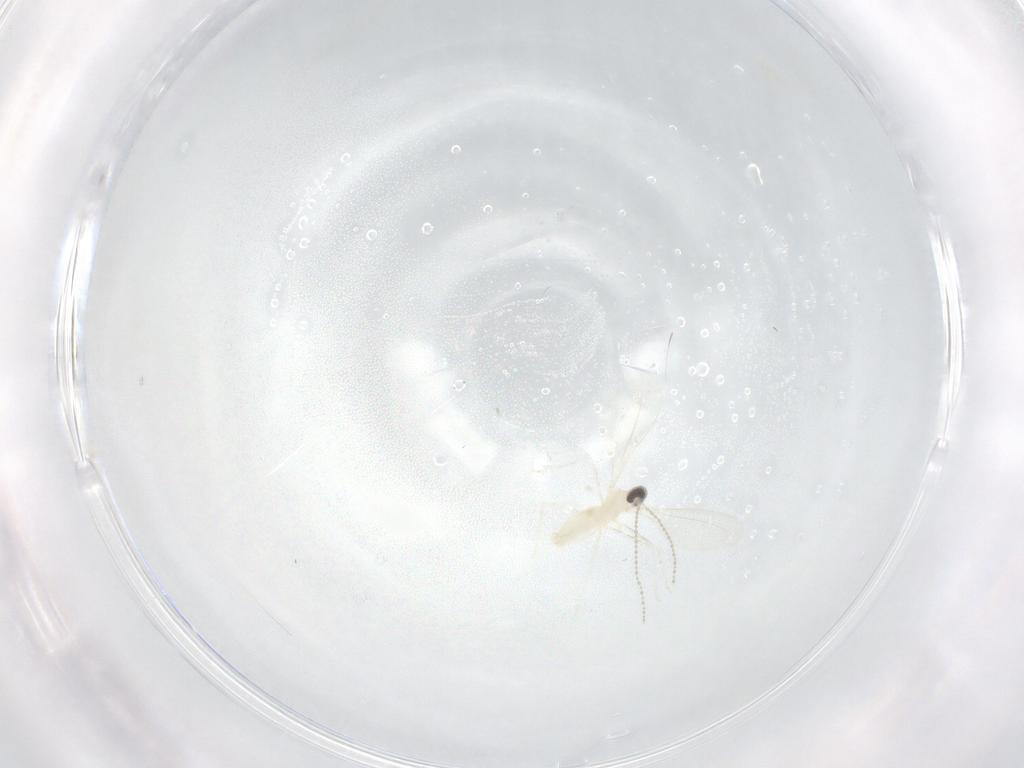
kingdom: Animalia
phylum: Arthropoda
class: Insecta
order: Diptera
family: Cecidomyiidae
